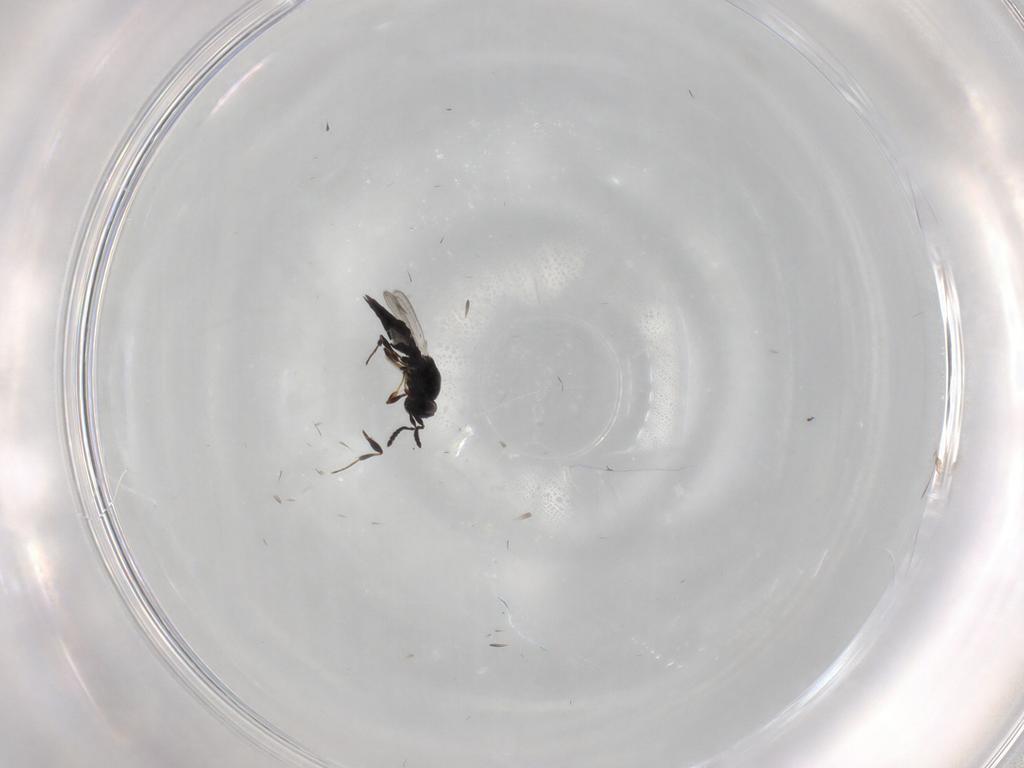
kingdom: Animalia
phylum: Arthropoda
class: Insecta
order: Hymenoptera
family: Platygastridae
